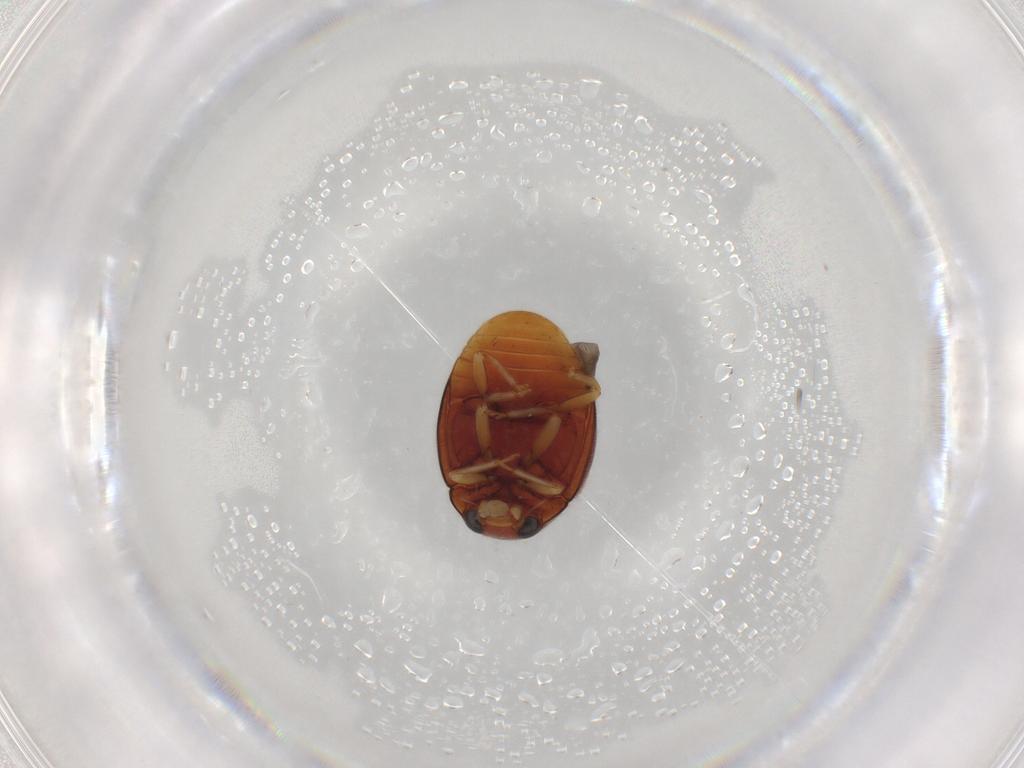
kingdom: Animalia
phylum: Arthropoda
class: Insecta
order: Coleoptera
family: Coccinellidae
